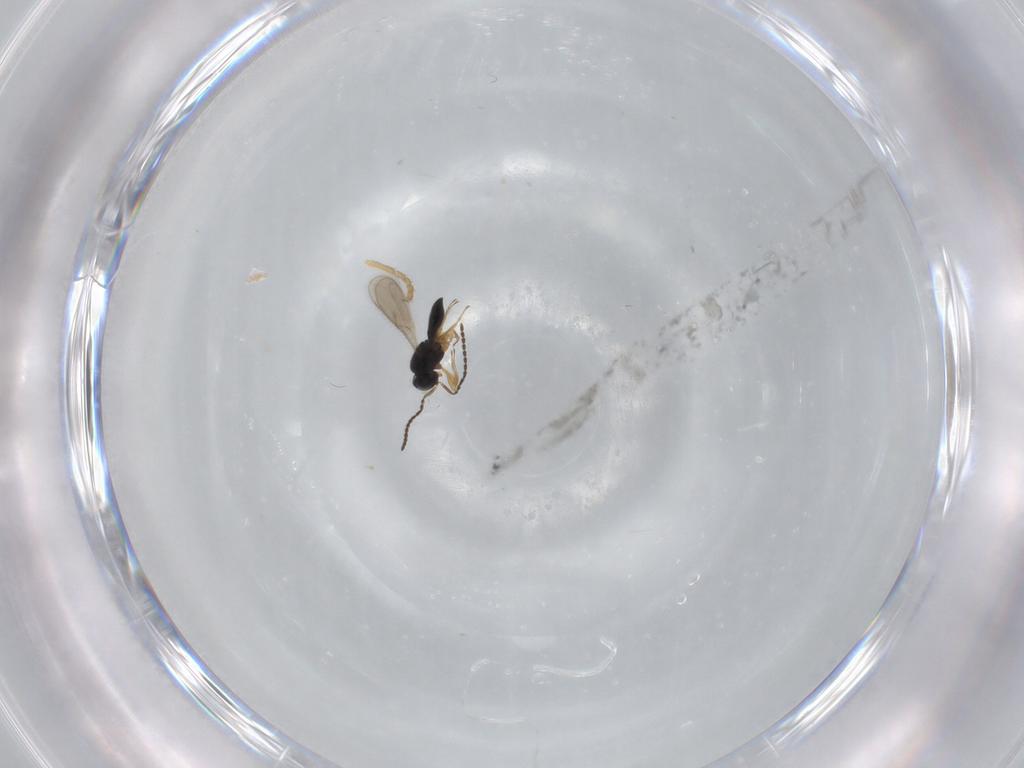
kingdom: Animalia
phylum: Arthropoda
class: Insecta
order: Hymenoptera
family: Scelionidae
